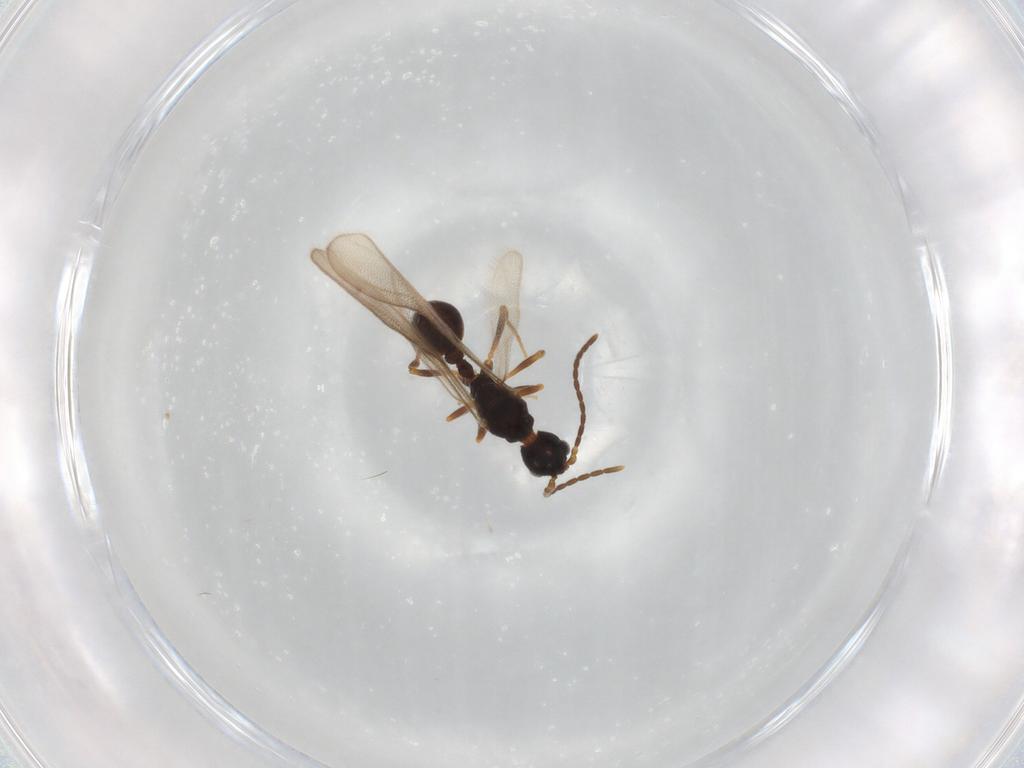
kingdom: Animalia
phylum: Arthropoda
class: Insecta
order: Hymenoptera
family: Formicidae
